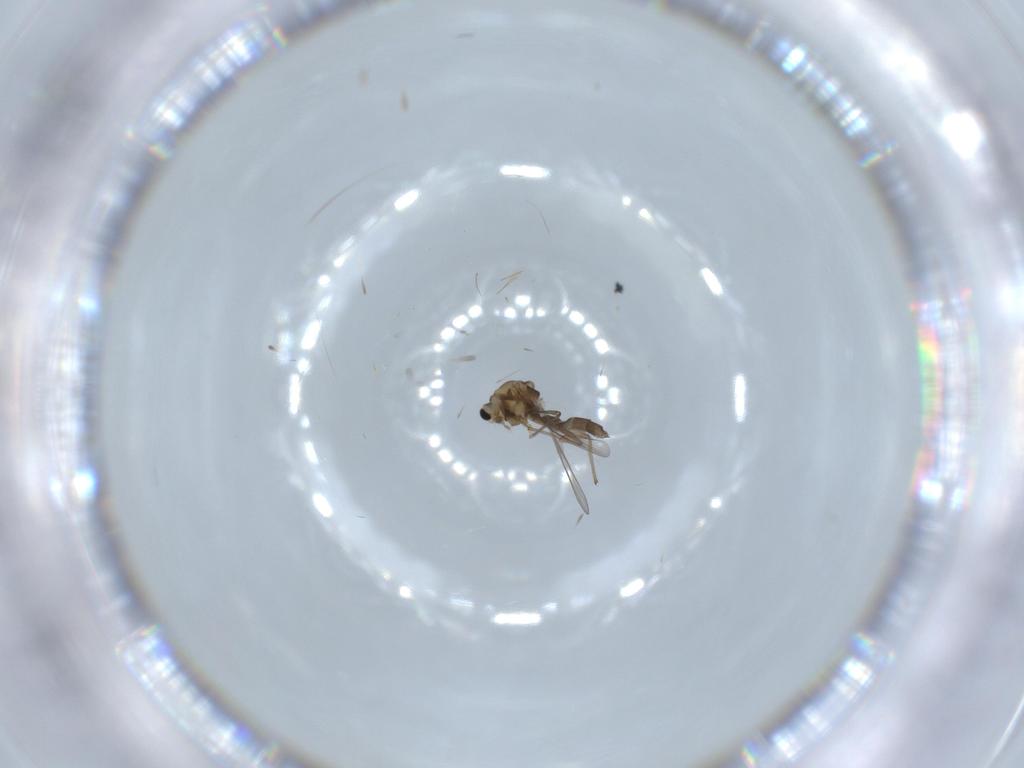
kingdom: Animalia
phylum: Arthropoda
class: Insecta
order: Diptera
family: Chironomidae
